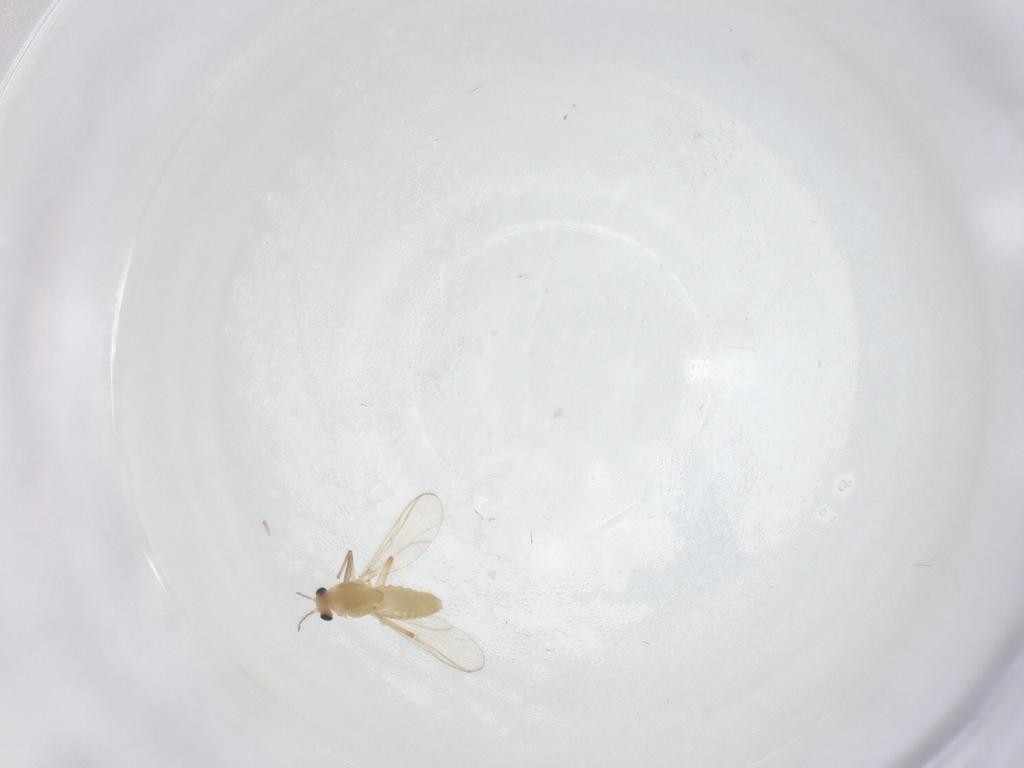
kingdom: Animalia
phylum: Arthropoda
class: Insecta
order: Diptera
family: Chironomidae
